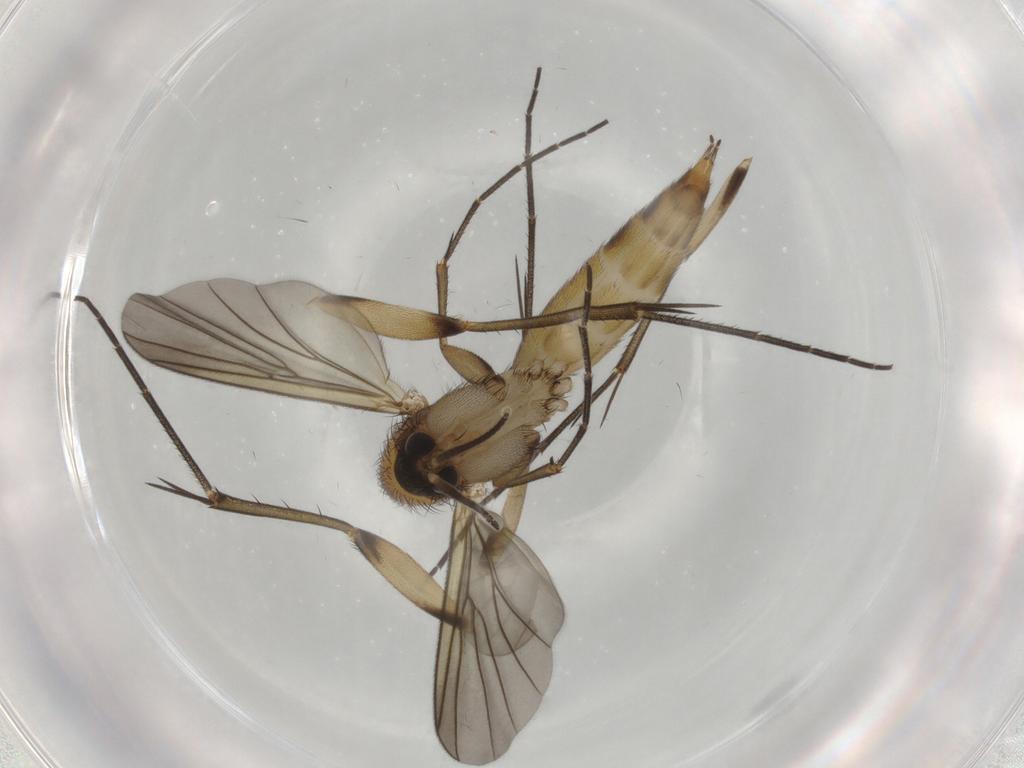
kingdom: Animalia
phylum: Arthropoda
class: Insecta
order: Diptera
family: Mycetophilidae
